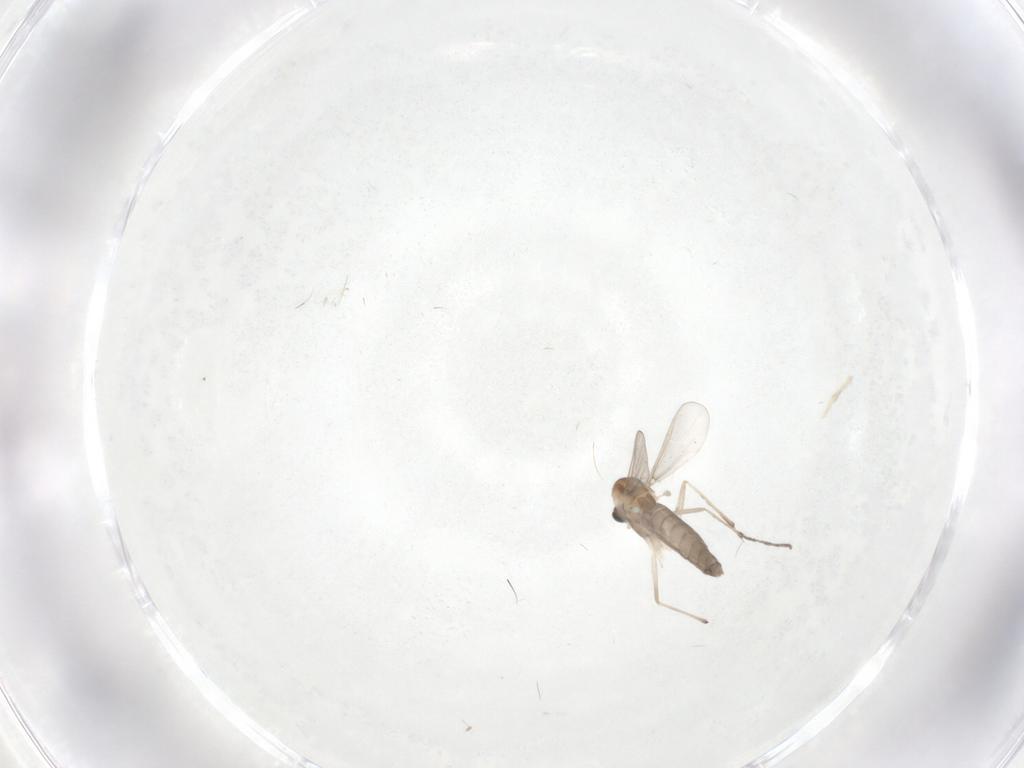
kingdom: Animalia
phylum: Arthropoda
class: Insecta
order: Diptera
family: Chironomidae
